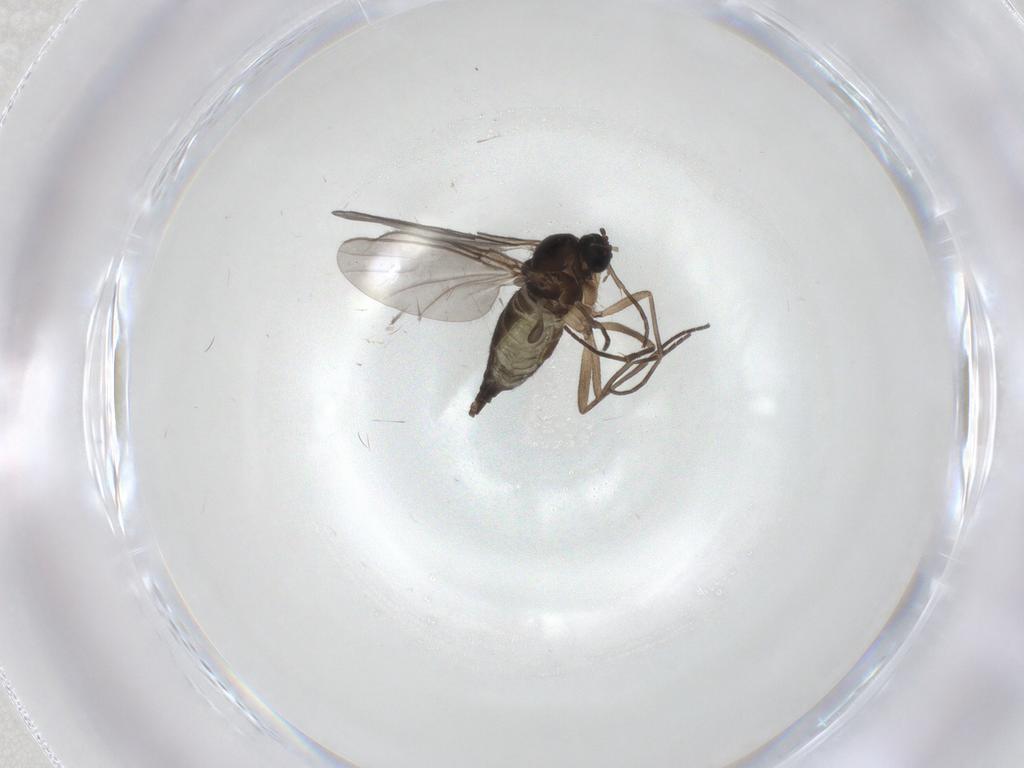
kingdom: Animalia
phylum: Arthropoda
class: Insecta
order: Diptera
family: Sciaridae
